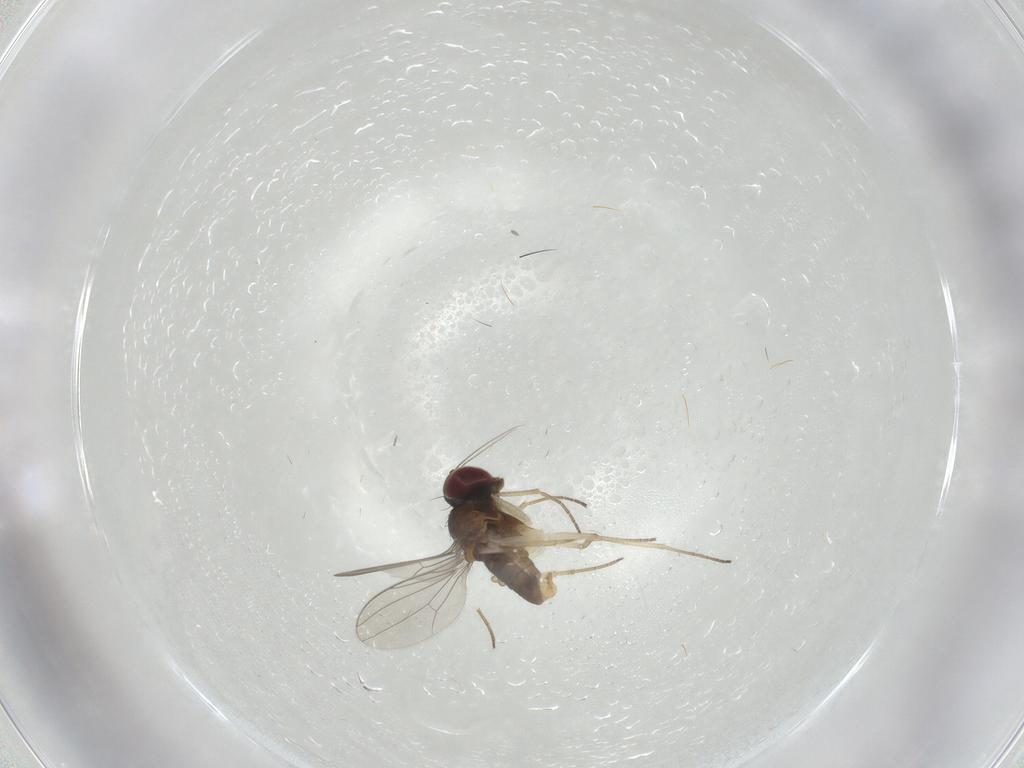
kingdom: Animalia
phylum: Arthropoda
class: Insecta
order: Diptera
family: Dolichopodidae
